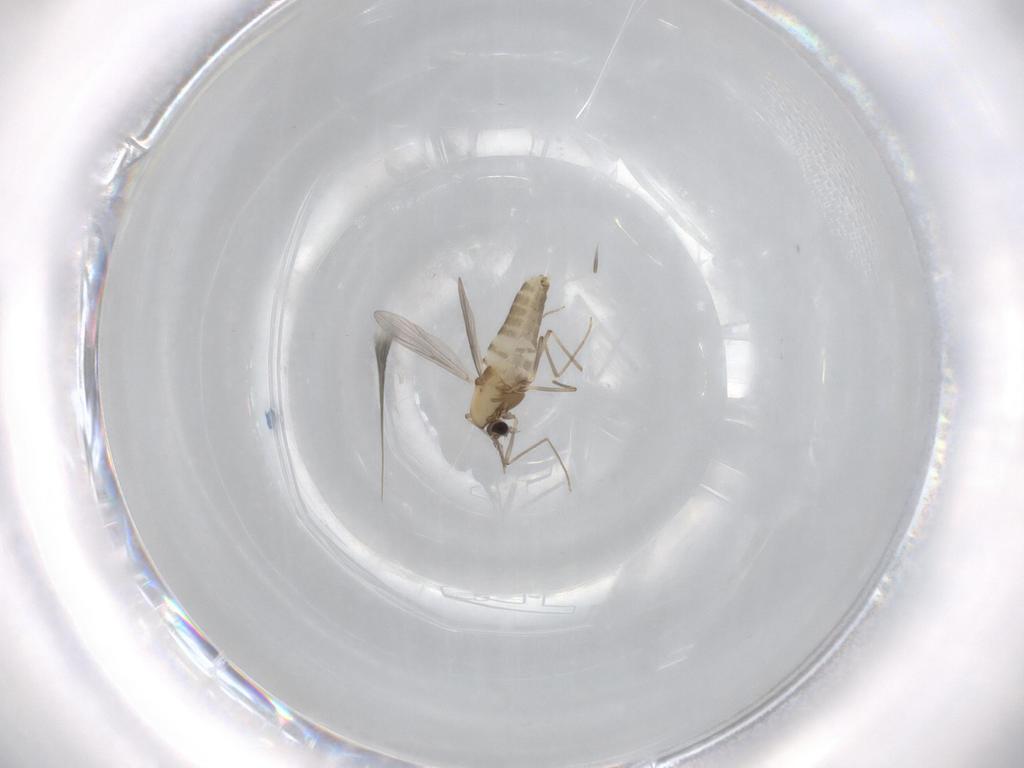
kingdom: Animalia
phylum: Arthropoda
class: Insecta
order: Diptera
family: Chironomidae
